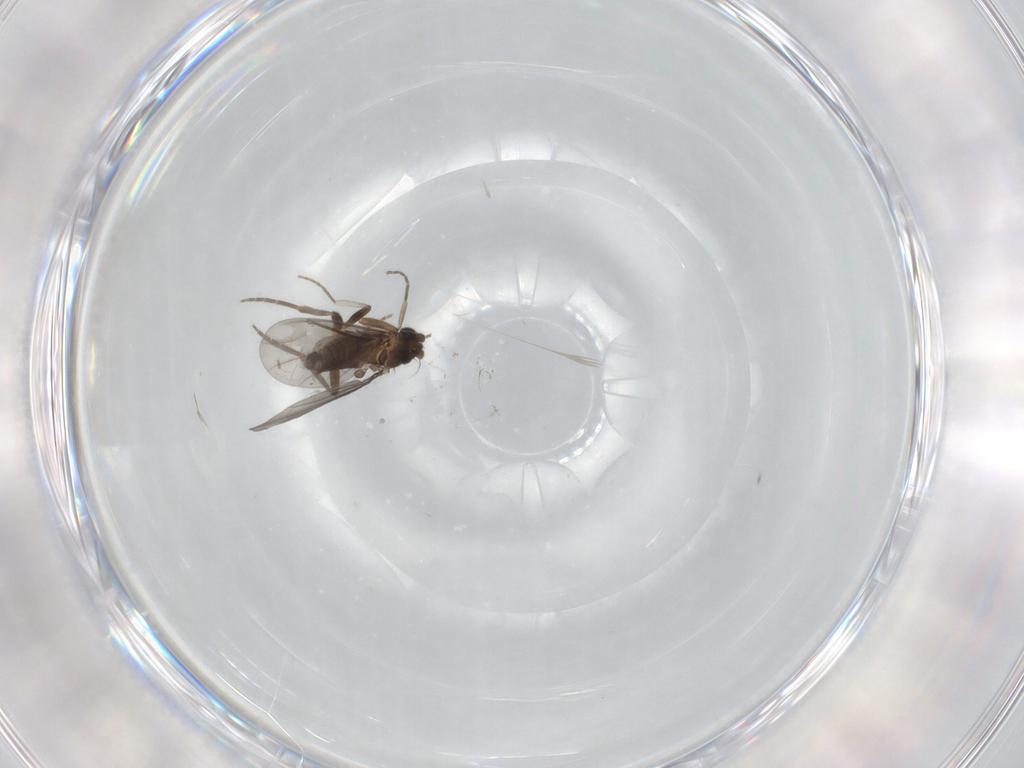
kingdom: Animalia
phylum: Arthropoda
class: Insecta
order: Diptera
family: Phoridae
